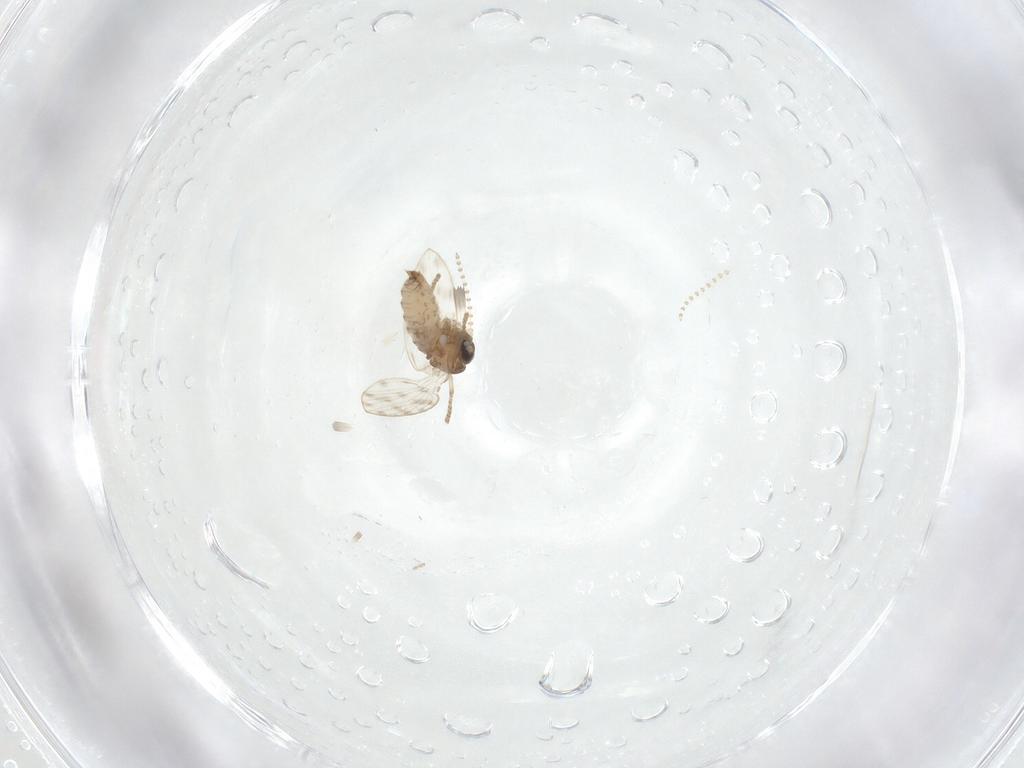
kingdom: Animalia
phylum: Arthropoda
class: Insecta
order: Diptera
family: Psychodidae
